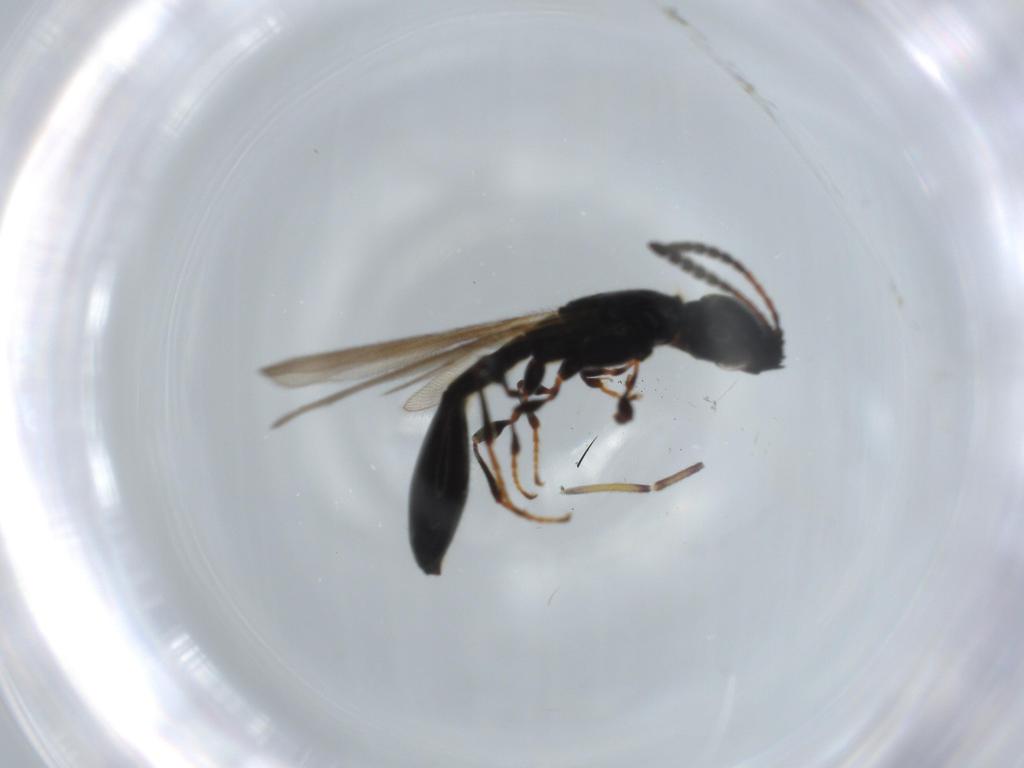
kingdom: Animalia
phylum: Arthropoda
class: Insecta
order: Hymenoptera
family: Diapriidae
